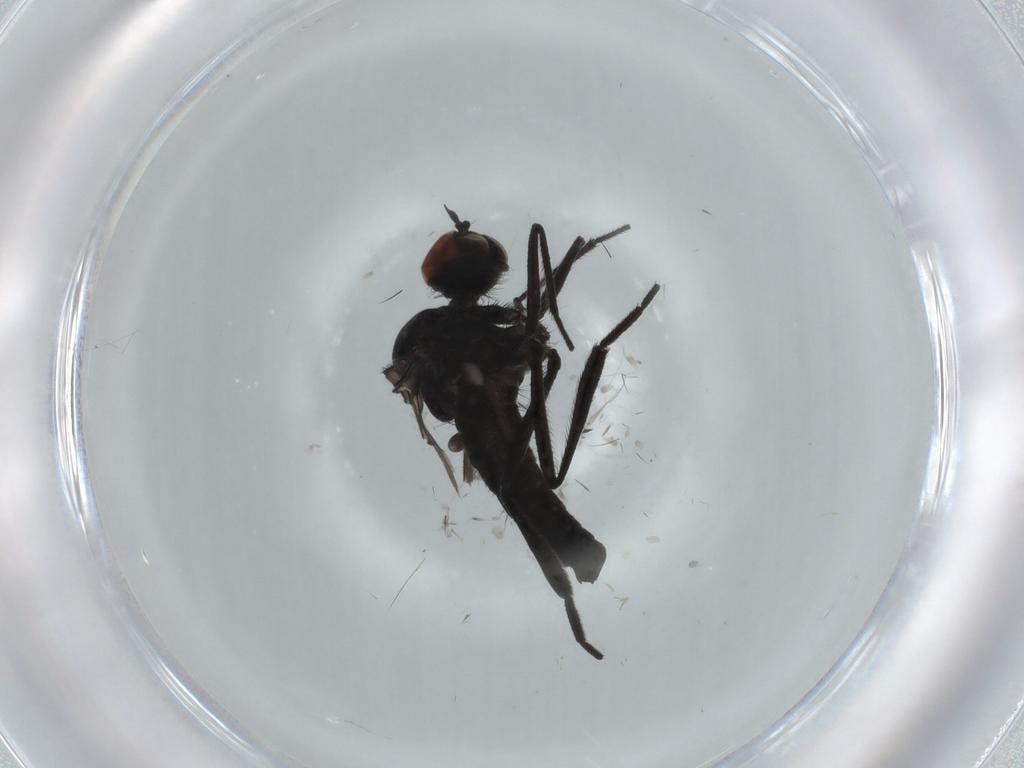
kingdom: Animalia
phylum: Arthropoda
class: Insecta
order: Diptera
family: Hybotidae
